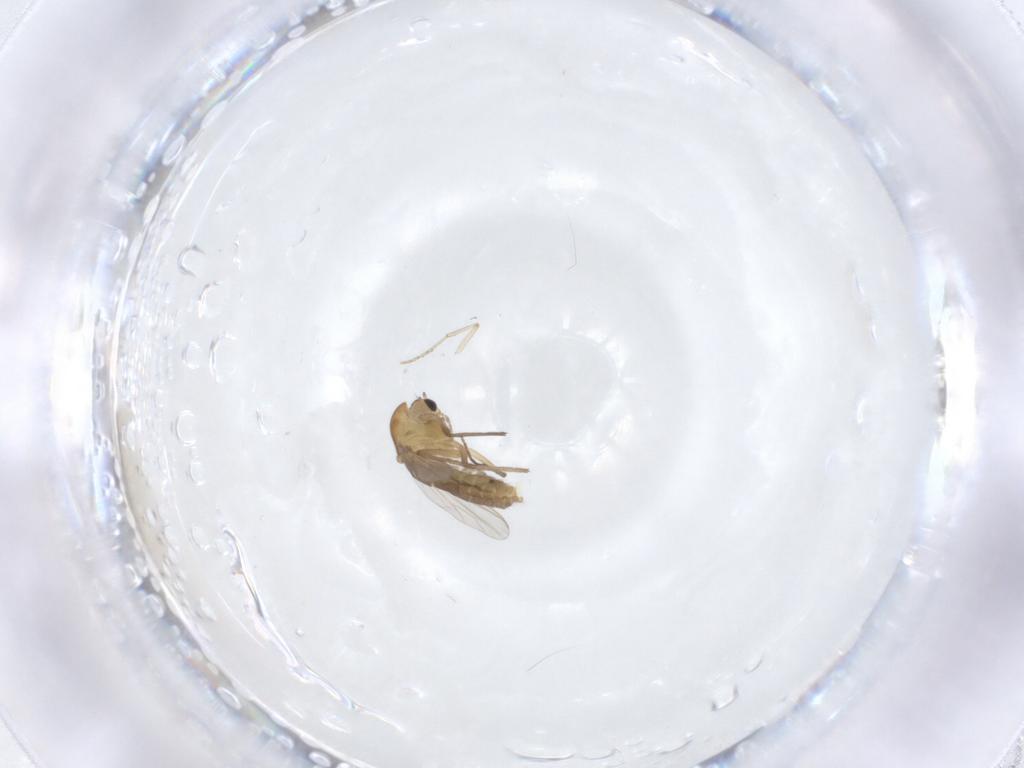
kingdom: Animalia
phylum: Arthropoda
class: Insecta
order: Diptera
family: Chironomidae
